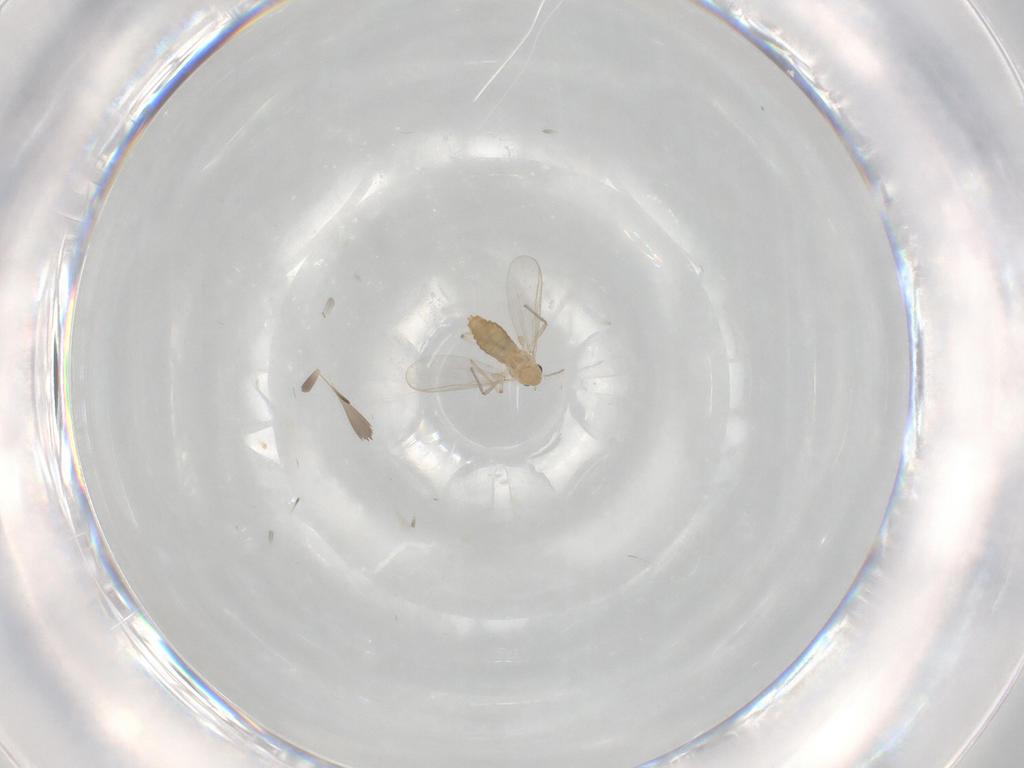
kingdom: Animalia
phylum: Arthropoda
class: Insecta
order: Diptera
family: Chironomidae
